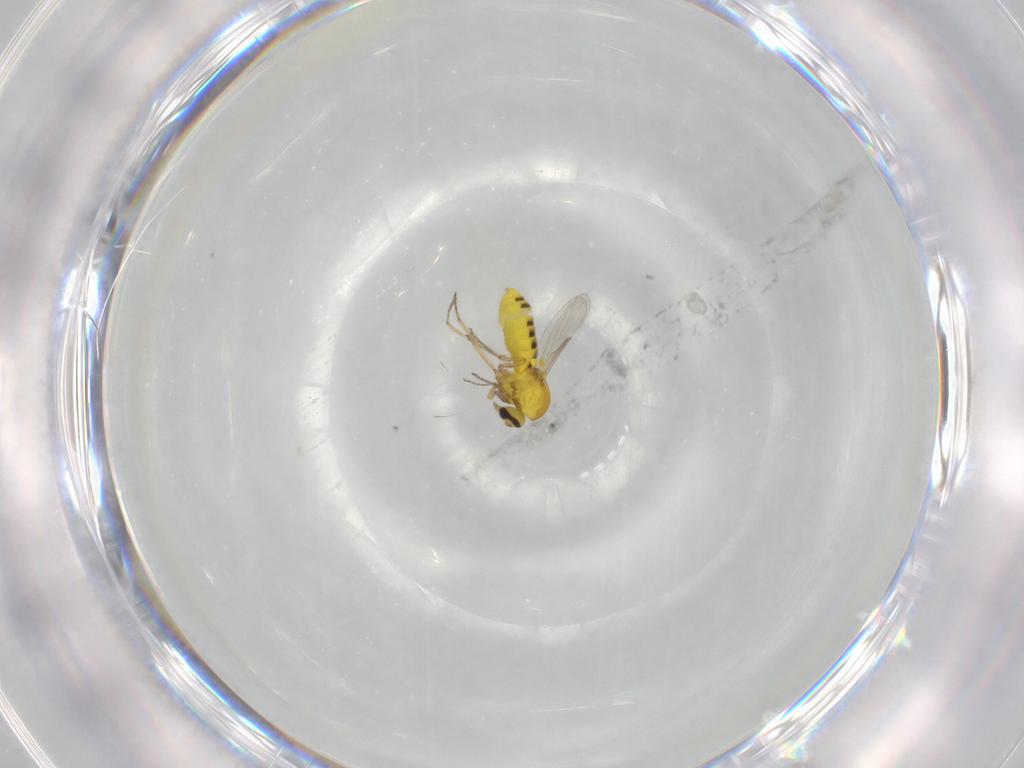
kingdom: Animalia
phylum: Arthropoda
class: Insecta
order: Diptera
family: Ceratopogonidae
